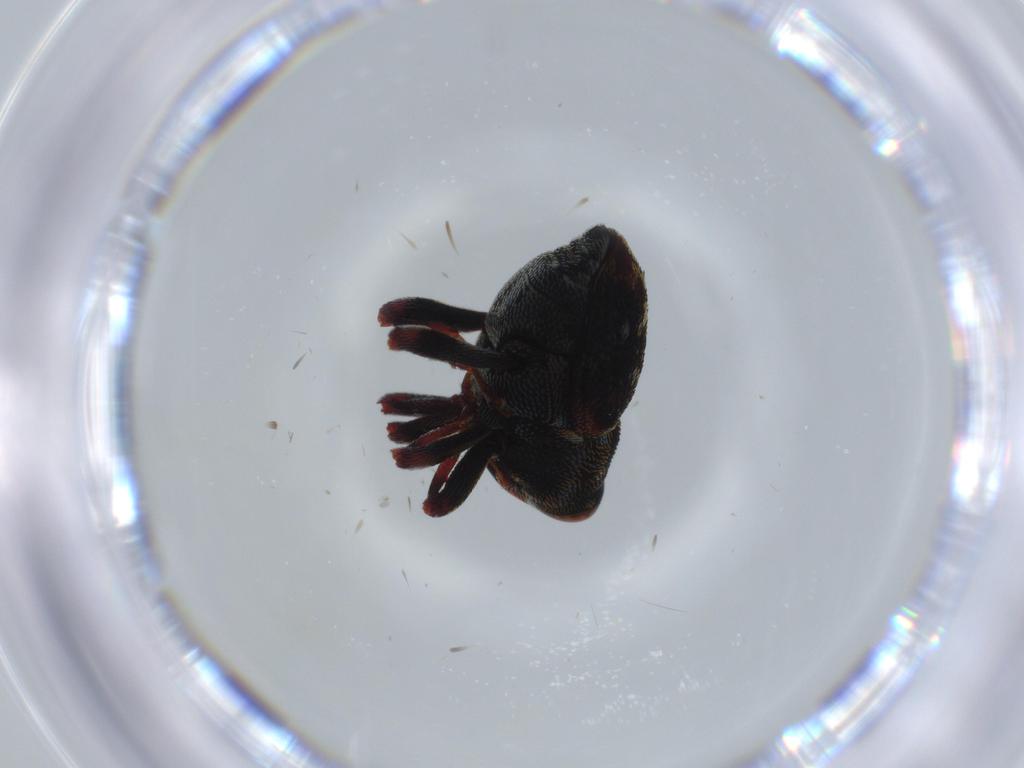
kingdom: Animalia
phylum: Arthropoda
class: Insecta
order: Coleoptera
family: Curculionidae
